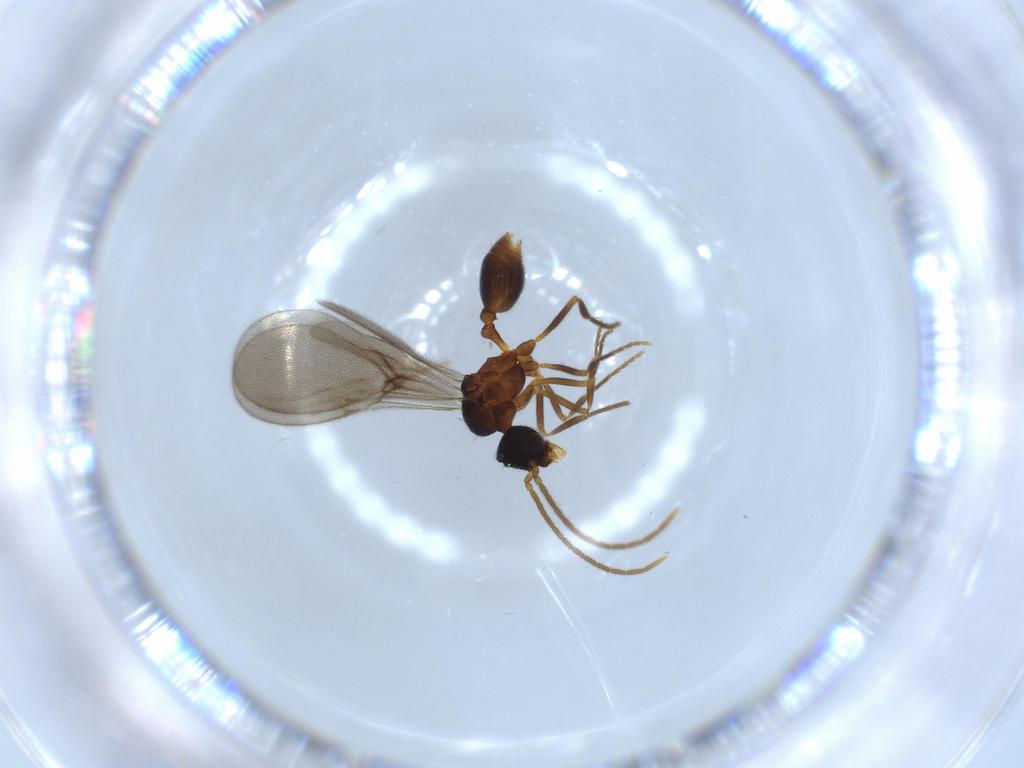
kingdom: Animalia
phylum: Arthropoda
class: Insecta
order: Hymenoptera
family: Formicidae
